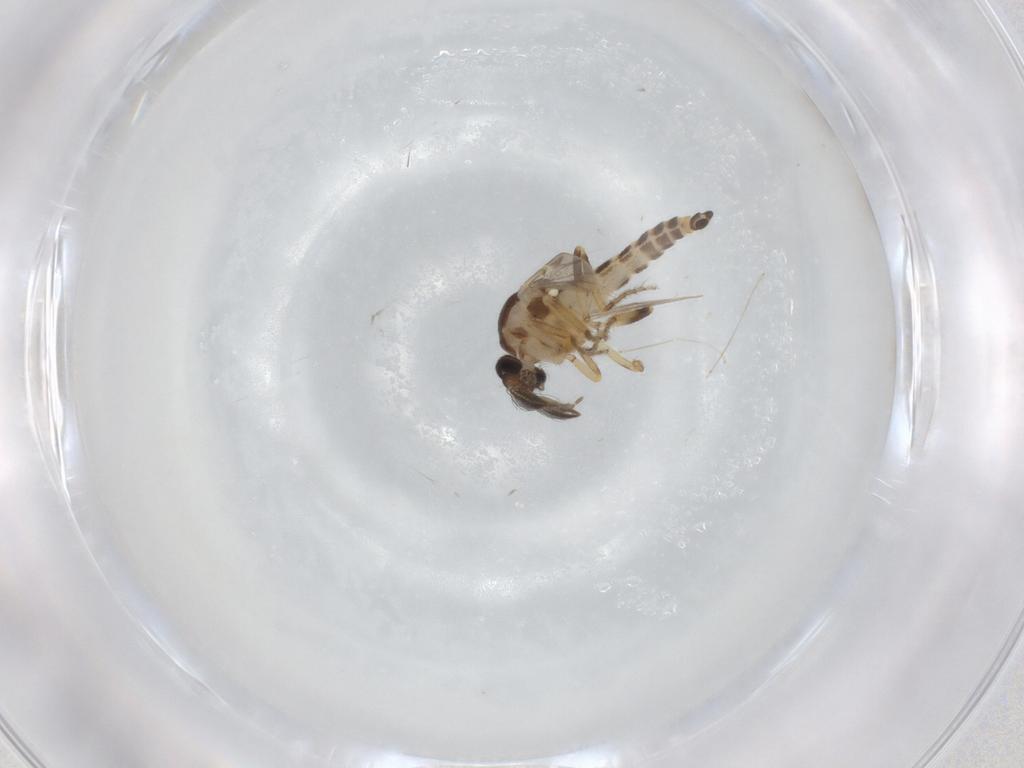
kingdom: Animalia
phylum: Arthropoda
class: Insecta
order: Diptera
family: Ceratopogonidae
